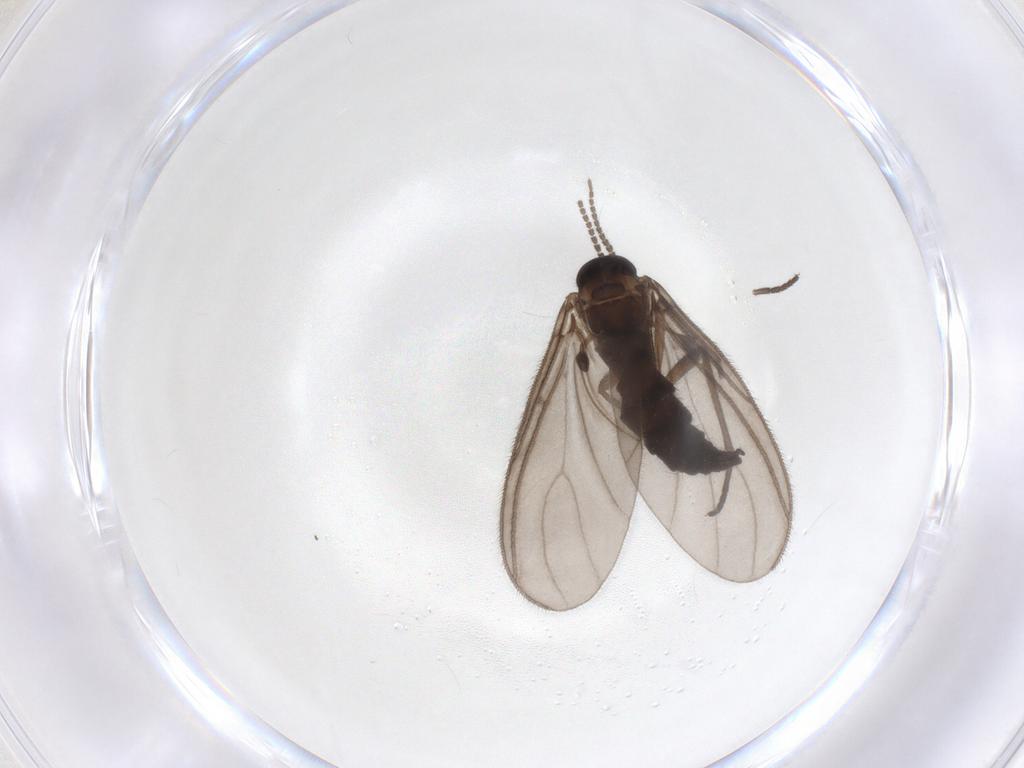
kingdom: Animalia
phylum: Arthropoda
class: Insecta
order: Diptera
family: Sciaridae
